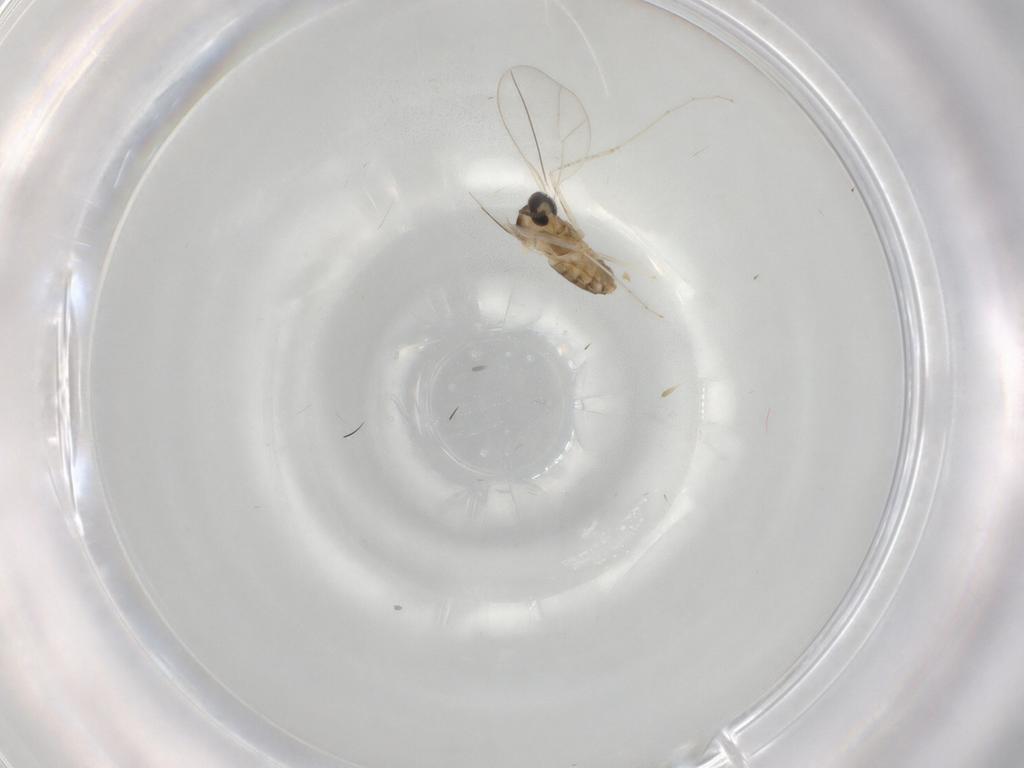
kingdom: Animalia
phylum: Arthropoda
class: Insecta
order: Diptera
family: Cecidomyiidae
